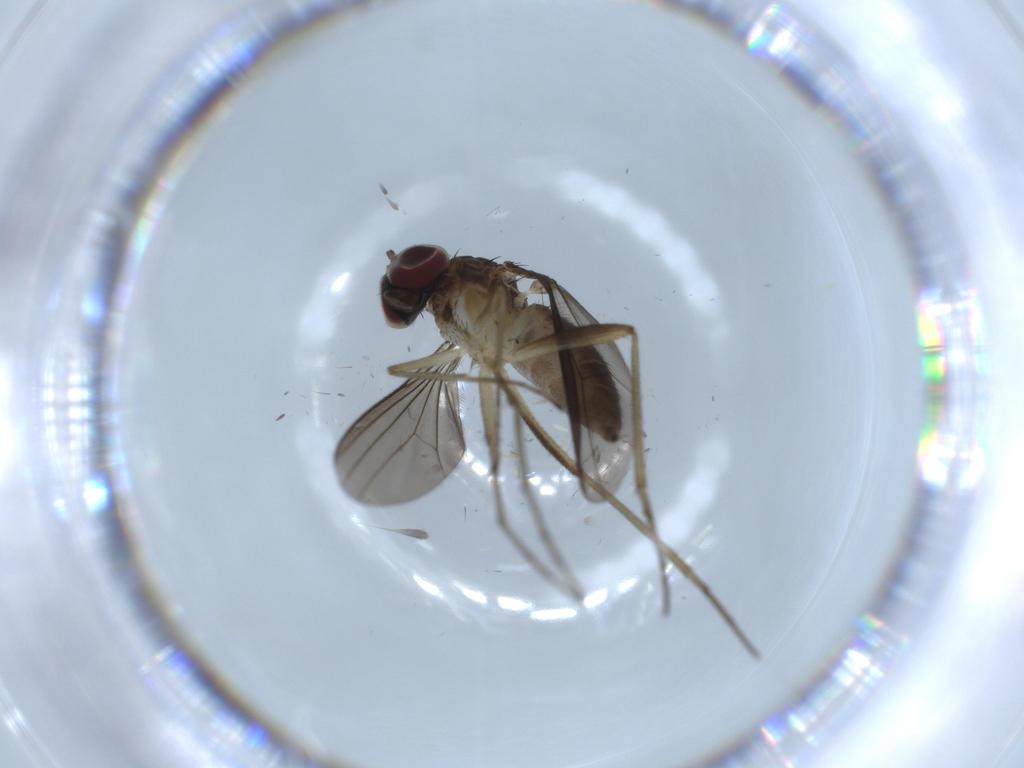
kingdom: Animalia
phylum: Arthropoda
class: Insecta
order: Diptera
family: Dolichopodidae
